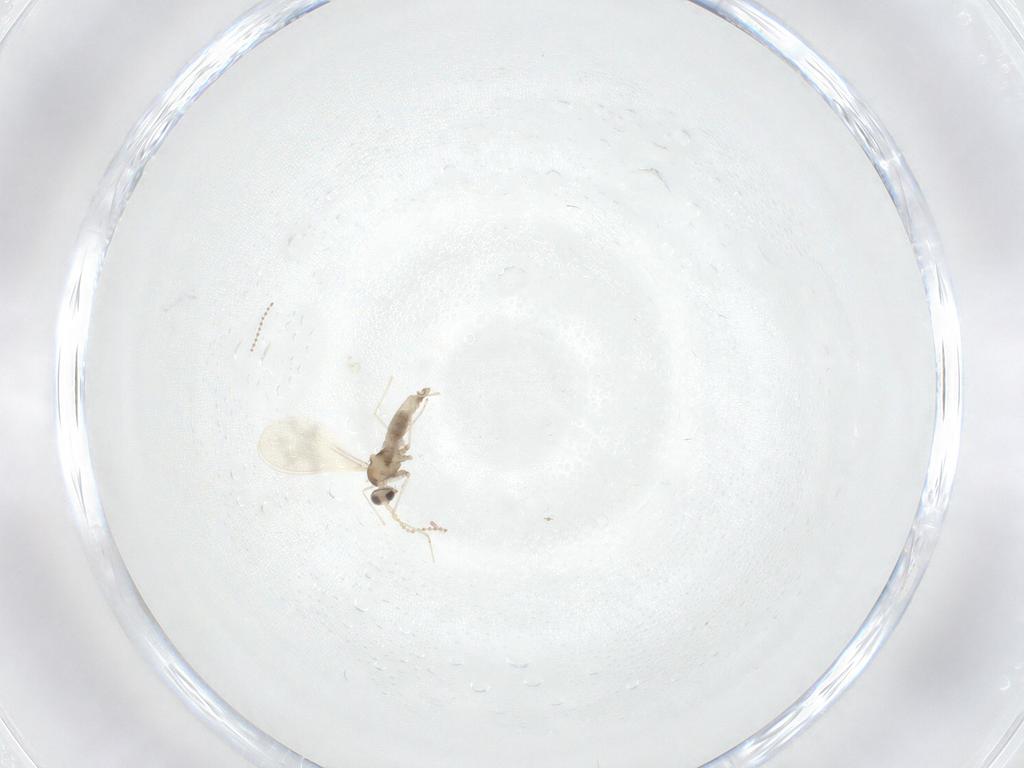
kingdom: Animalia
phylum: Arthropoda
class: Insecta
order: Diptera
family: Cecidomyiidae
